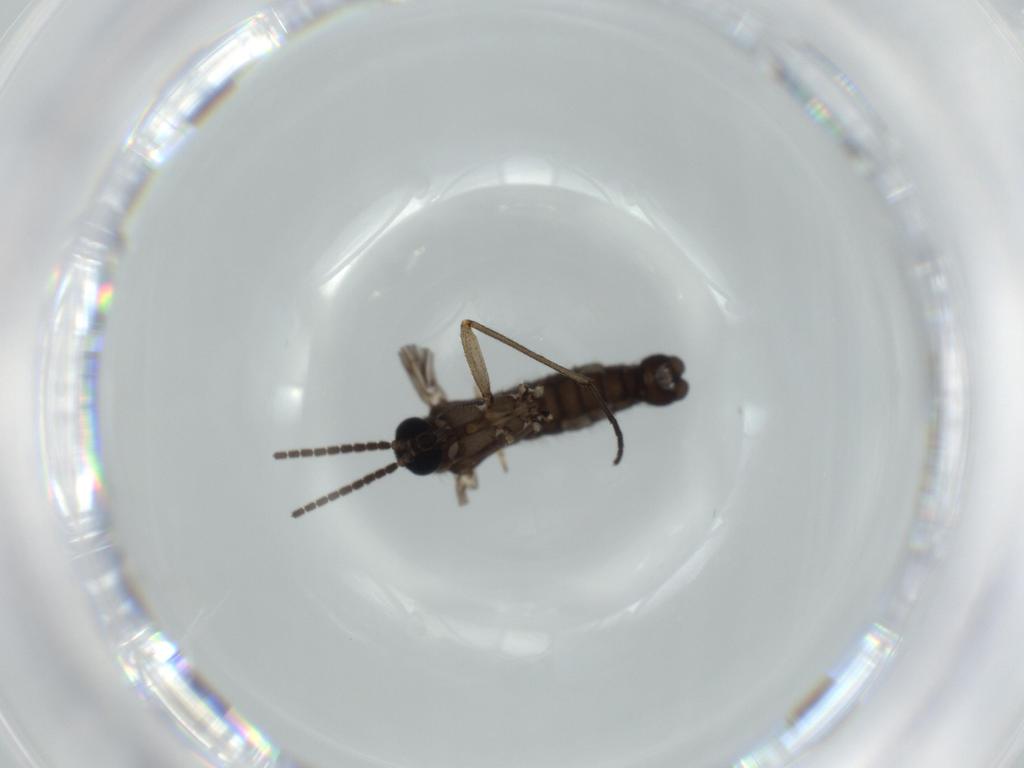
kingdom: Animalia
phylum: Arthropoda
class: Insecta
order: Diptera
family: Sciaridae
